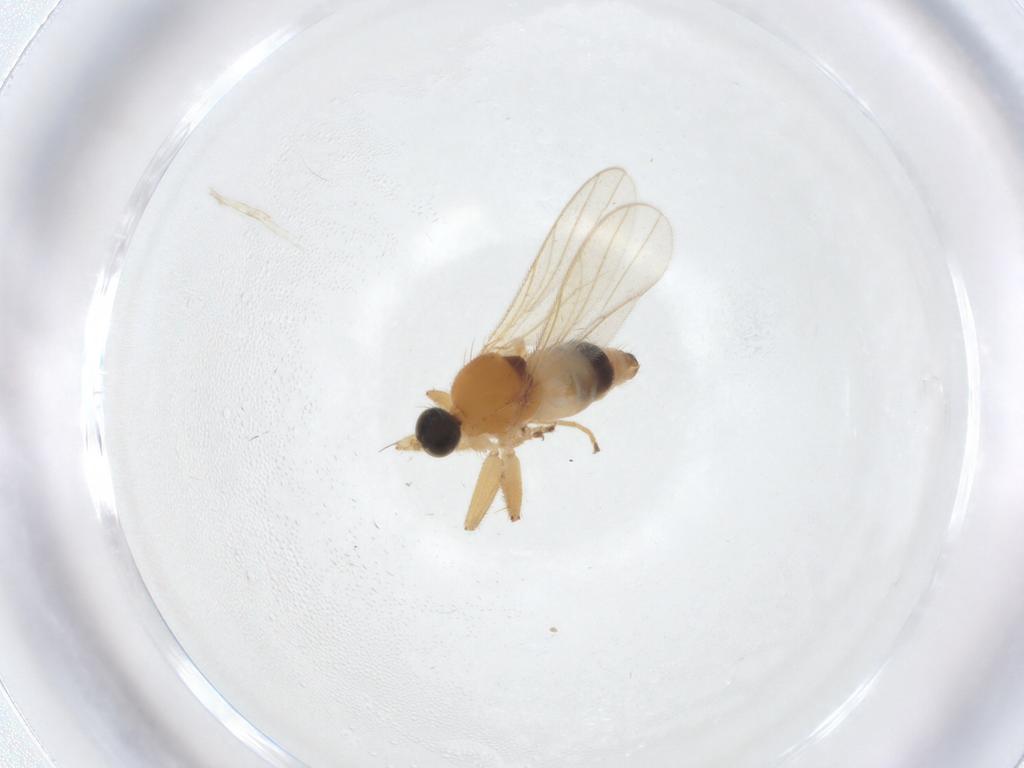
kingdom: Animalia
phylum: Arthropoda
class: Insecta
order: Diptera
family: Hybotidae
